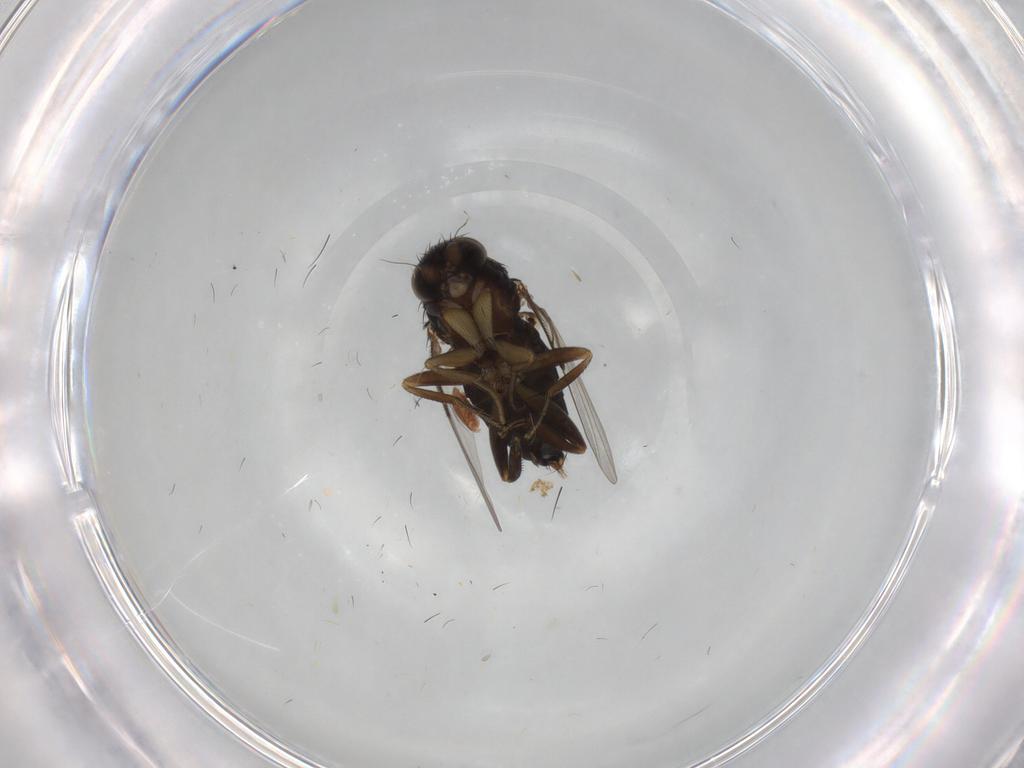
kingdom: Animalia
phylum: Arthropoda
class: Insecta
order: Diptera
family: Phoridae
